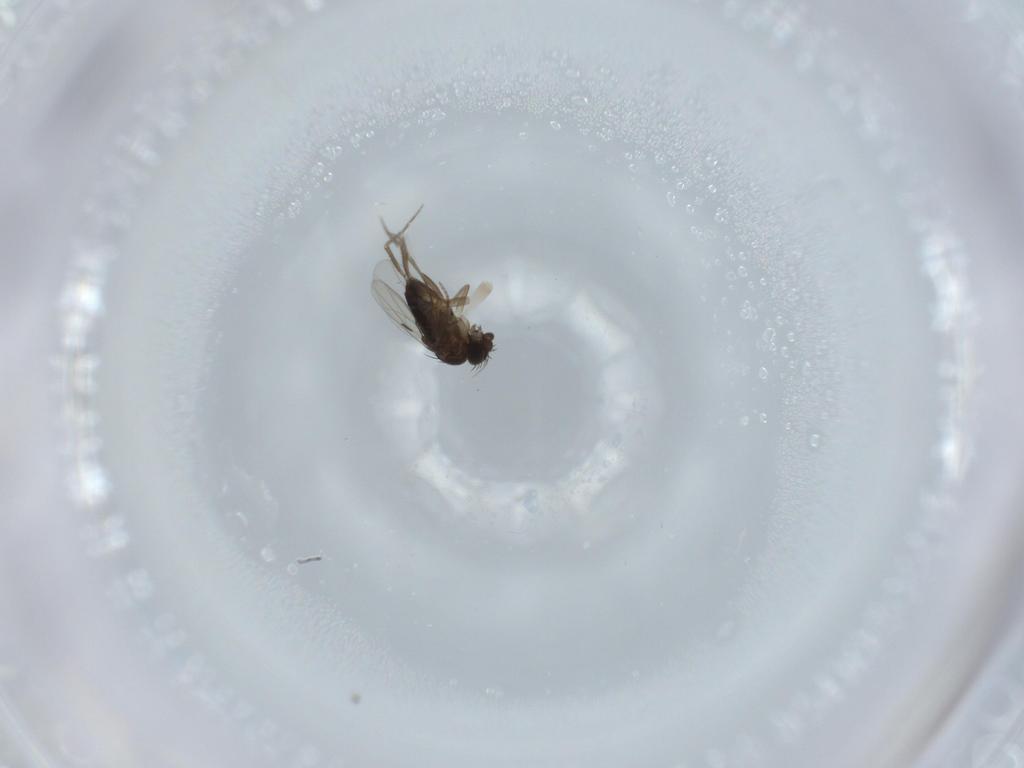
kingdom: Animalia
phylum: Arthropoda
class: Insecta
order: Diptera
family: Phoridae
